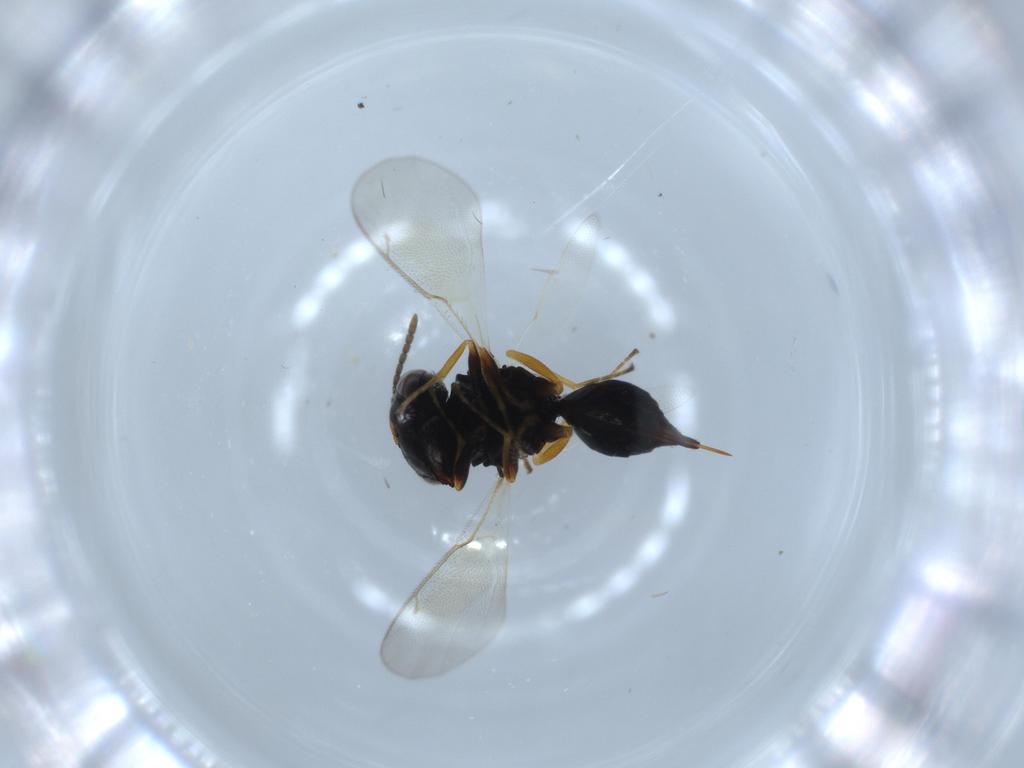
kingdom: Animalia
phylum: Arthropoda
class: Insecta
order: Hymenoptera
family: Pteromalidae
